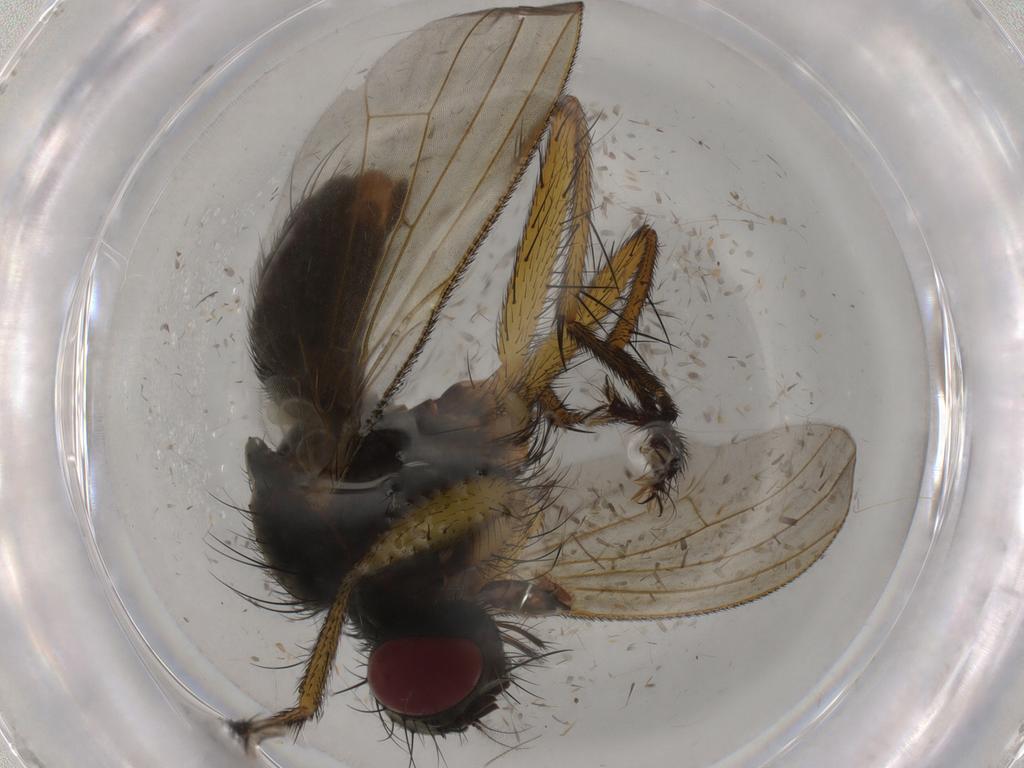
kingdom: Animalia
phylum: Arthropoda
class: Insecta
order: Diptera
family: Muscidae
